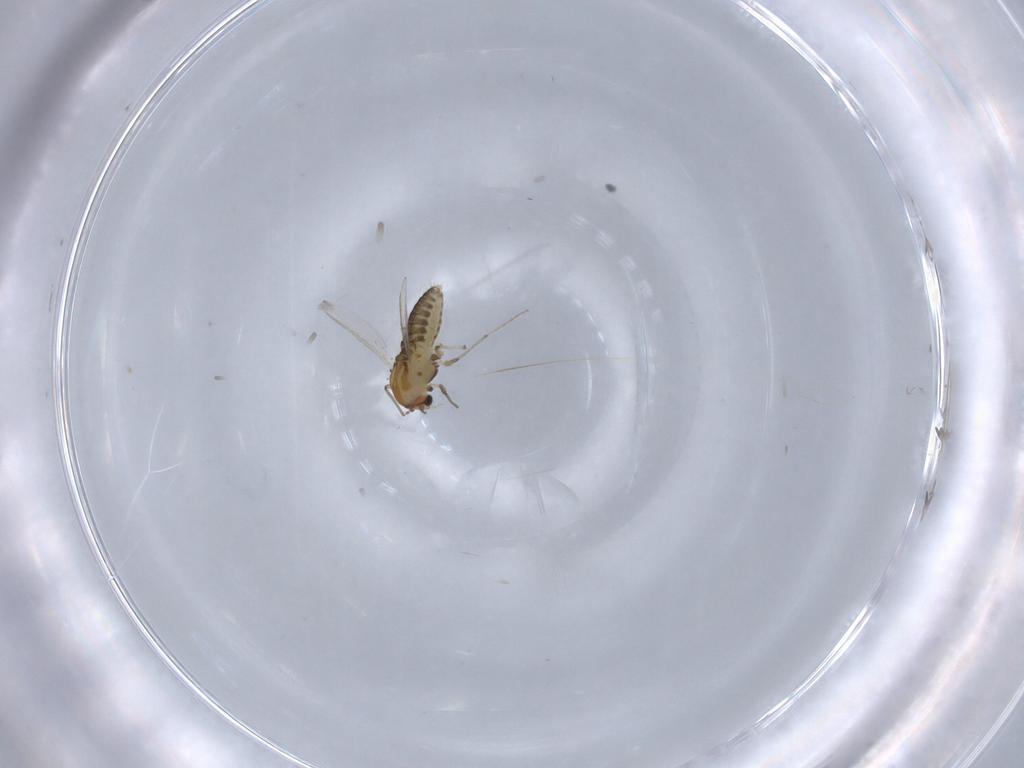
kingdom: Animalia
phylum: Arthropoda
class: Insecta
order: Diptera
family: Chironomidae
